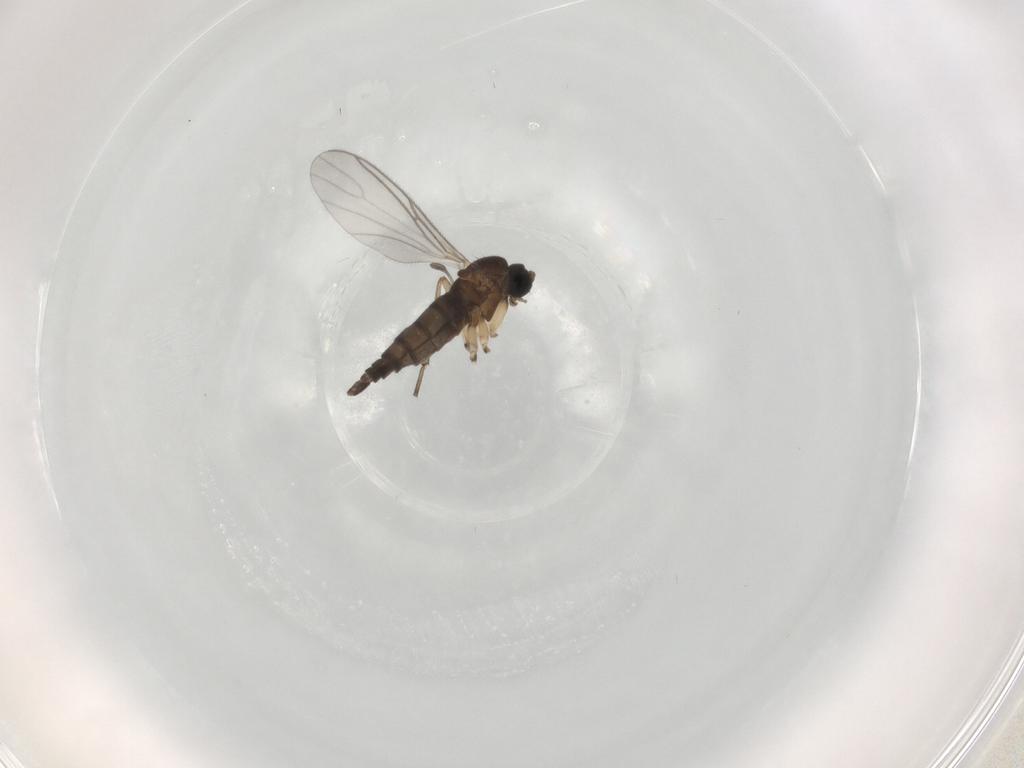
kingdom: Animalia
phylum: Arthropoda
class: Insecta
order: Diptera
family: Sciaridae
